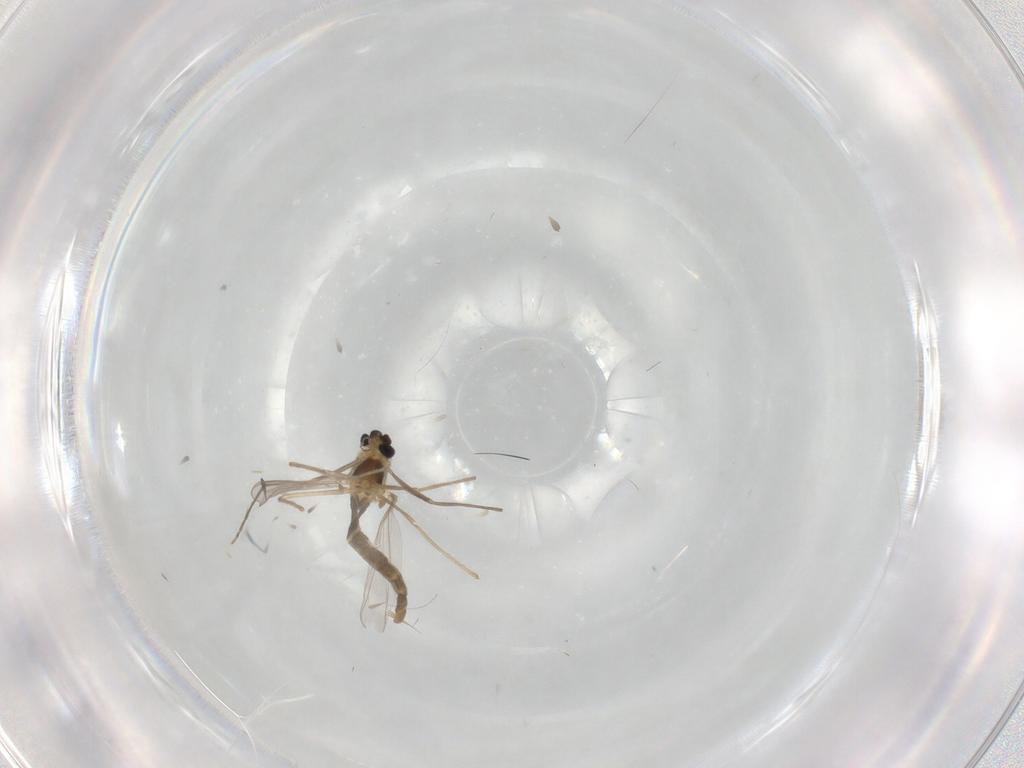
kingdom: Animalia
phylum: Arthropoda
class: Insecta
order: Diptera
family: Chironomidae
